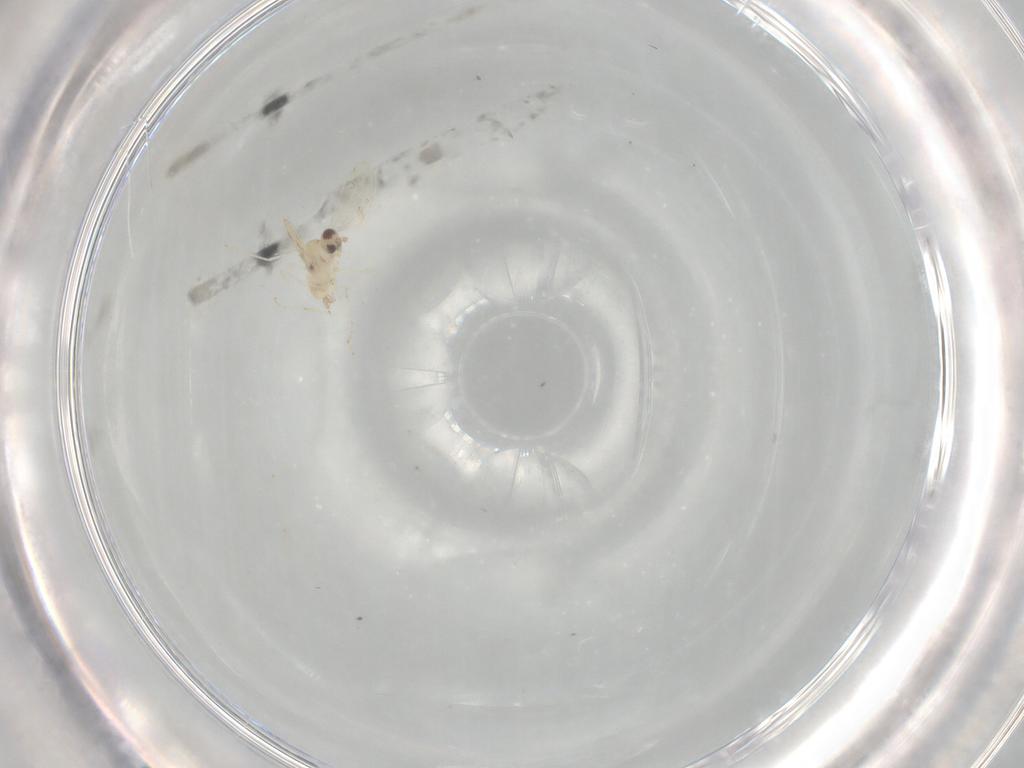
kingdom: Animalia
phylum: Arthropoda
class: Insecta
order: Diptera
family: Cecidomyiidae
